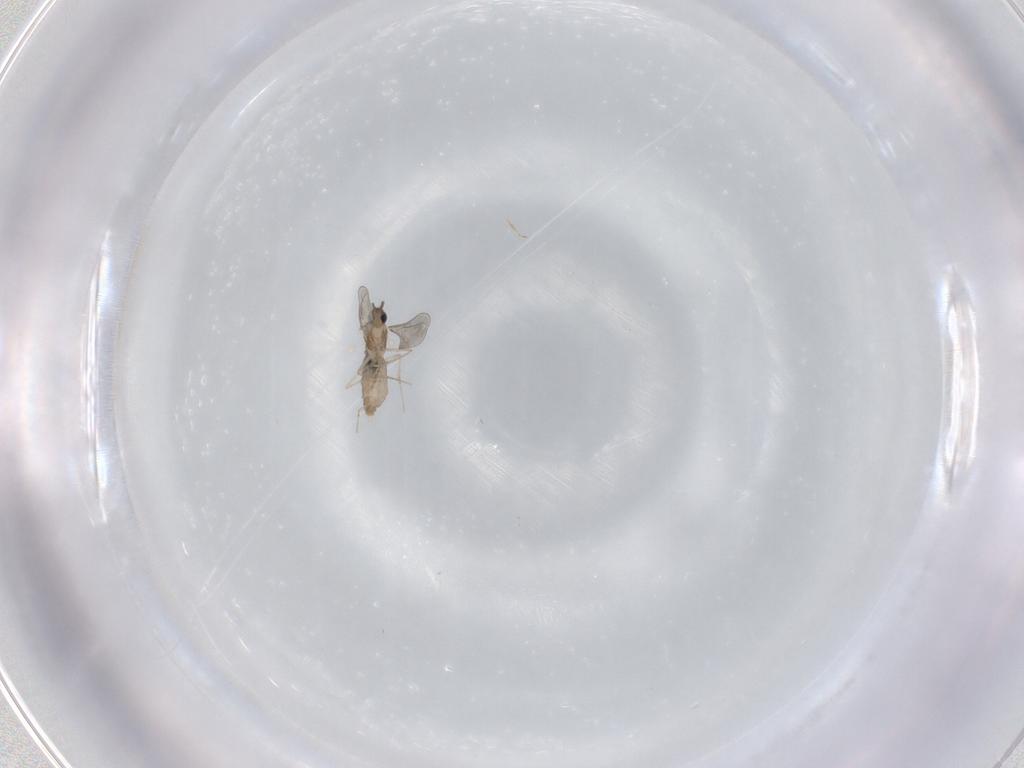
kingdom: Animalia
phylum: Arthropoda
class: Insecta
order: Diptera
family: Sciaridae
